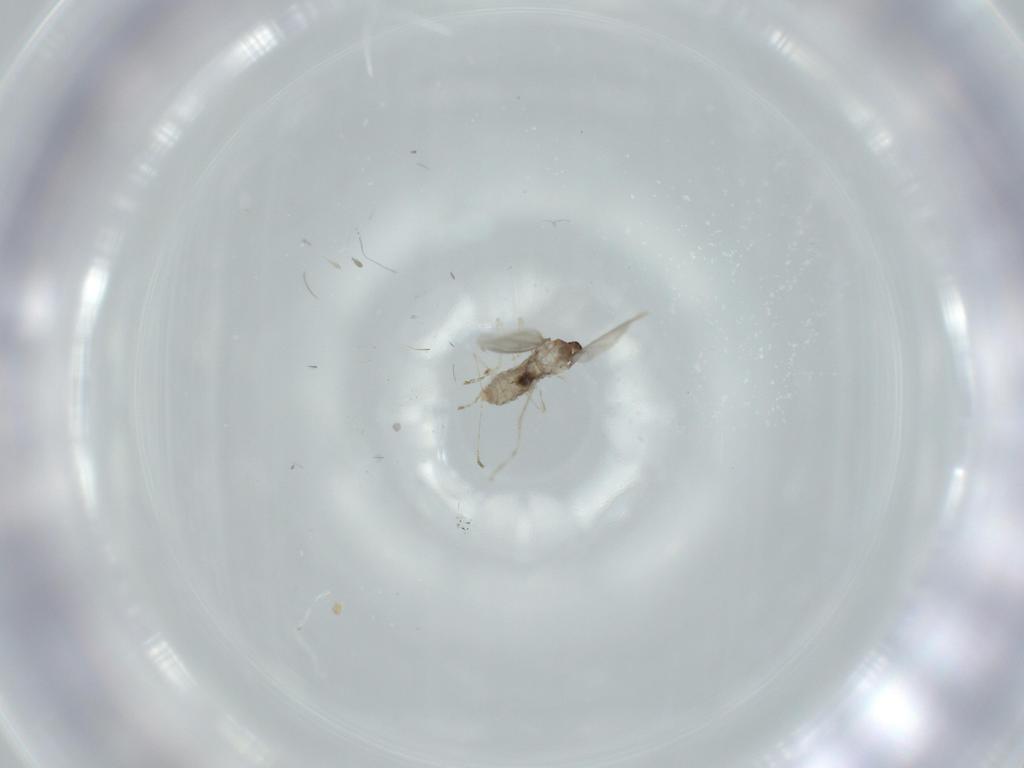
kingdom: Animalia
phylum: Arthropoda
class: Insecta
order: Diptera
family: Cecidomyiidae
